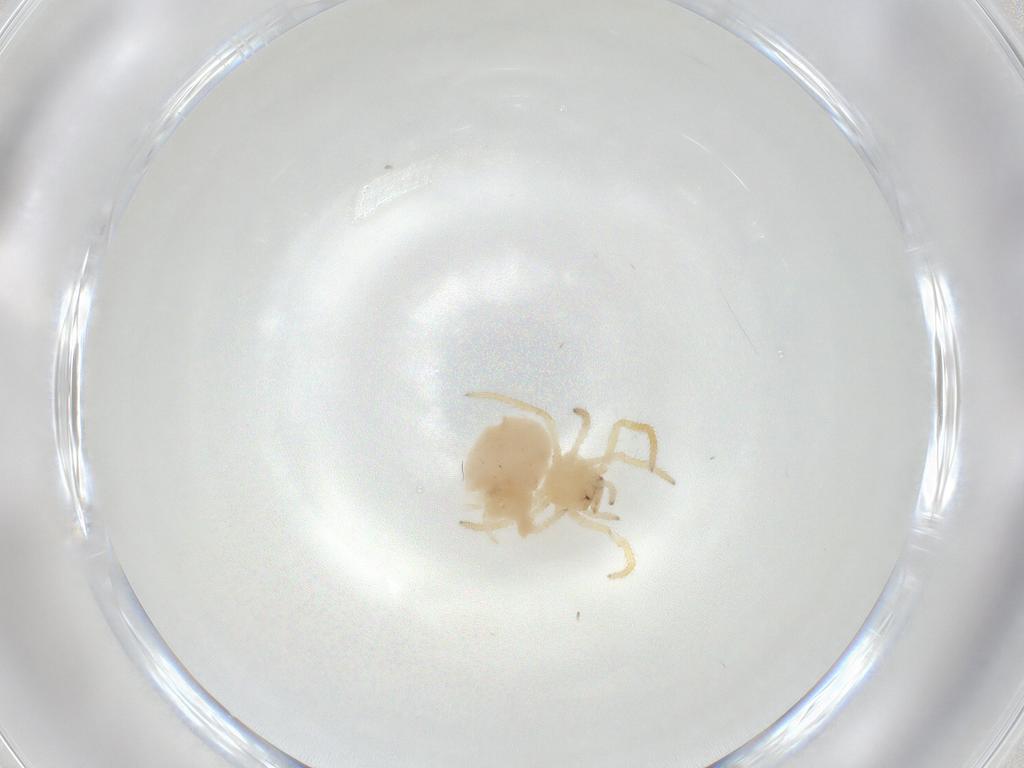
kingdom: Animalia
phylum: Arthropoda
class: Arachnida
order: Araneae
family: Theridiidae
